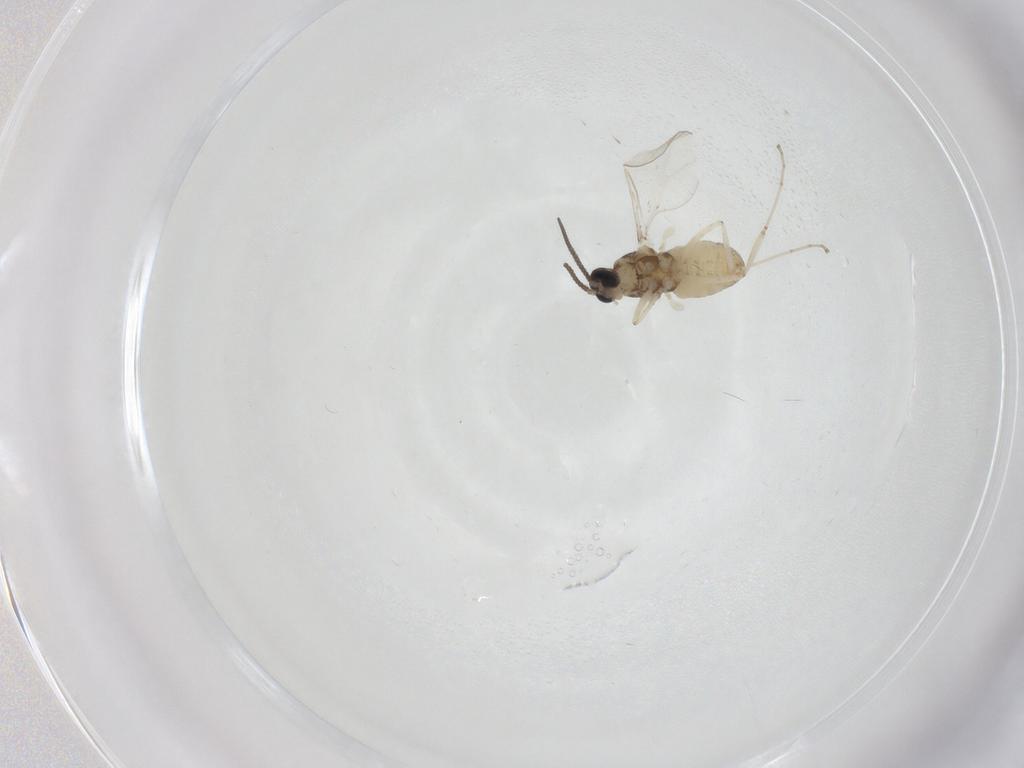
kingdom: Animalia
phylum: Arthropoda
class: Insecta
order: Diptera
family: Cecidomyiidae
